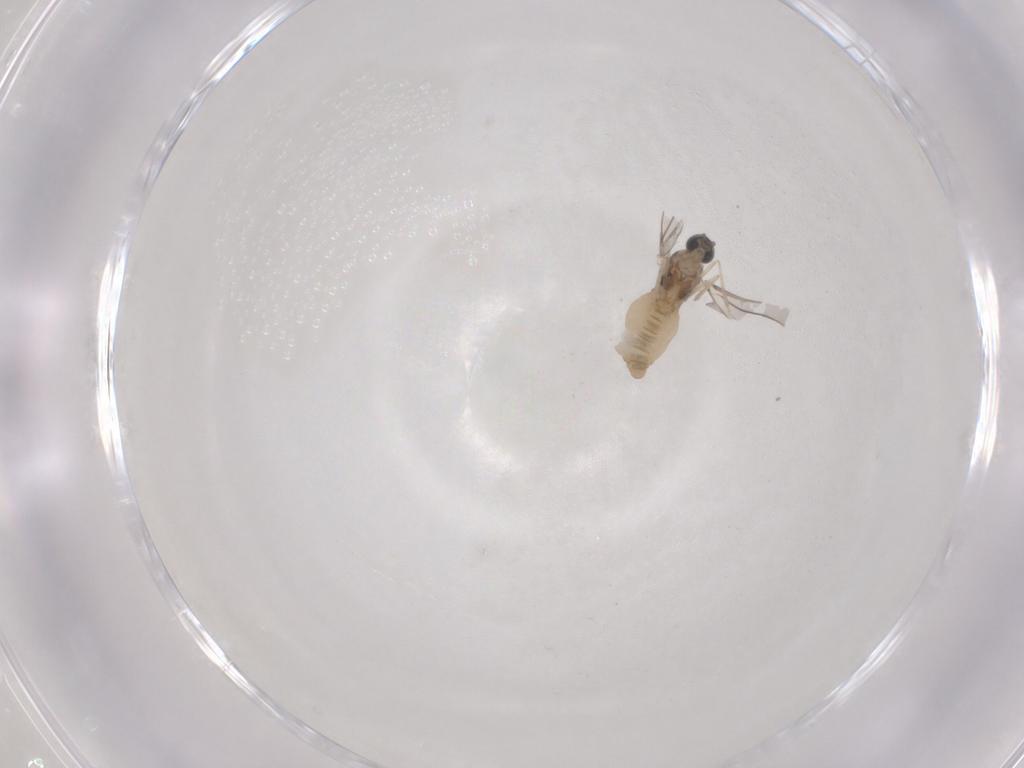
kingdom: Animalia
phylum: Arthropoda
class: Insecta
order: Diptera
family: Cecidomyiidae
